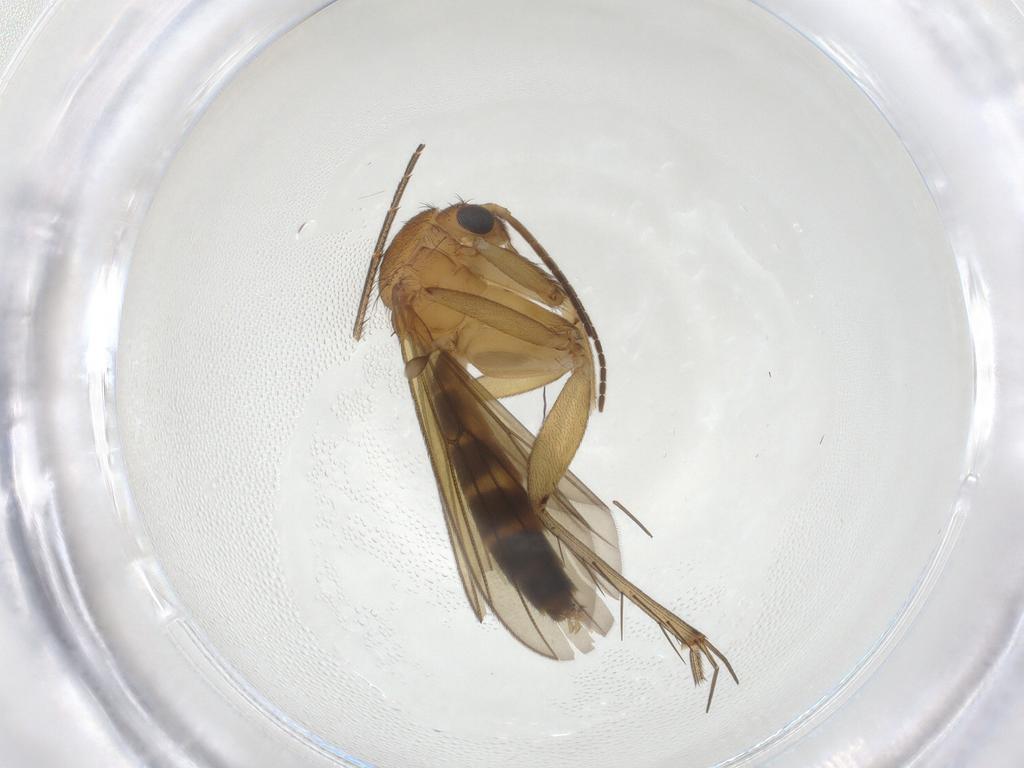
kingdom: Animalia
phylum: Arthropoda
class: Insecta
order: Diptera
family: Mycetophilidae
